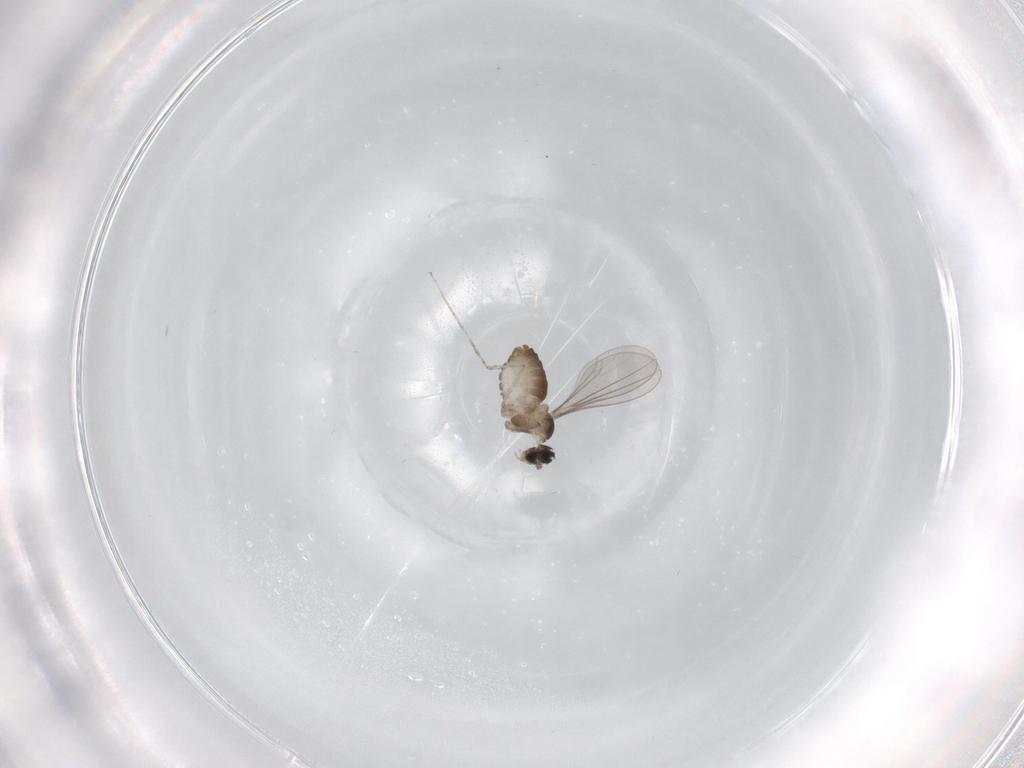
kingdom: Animalia
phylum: Arthropoda
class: Insecta
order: Diptera
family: Cecidomyiidae
